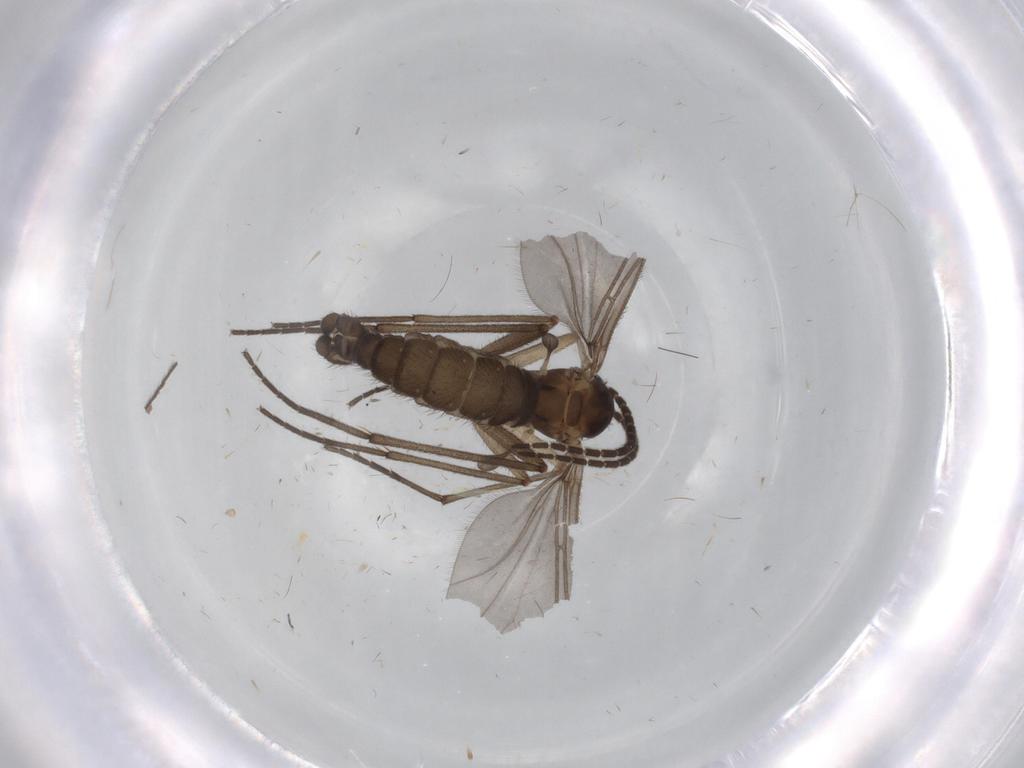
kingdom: Animalia
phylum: Arthropoda
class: Insecta
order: Diptera
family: Sciaridae
